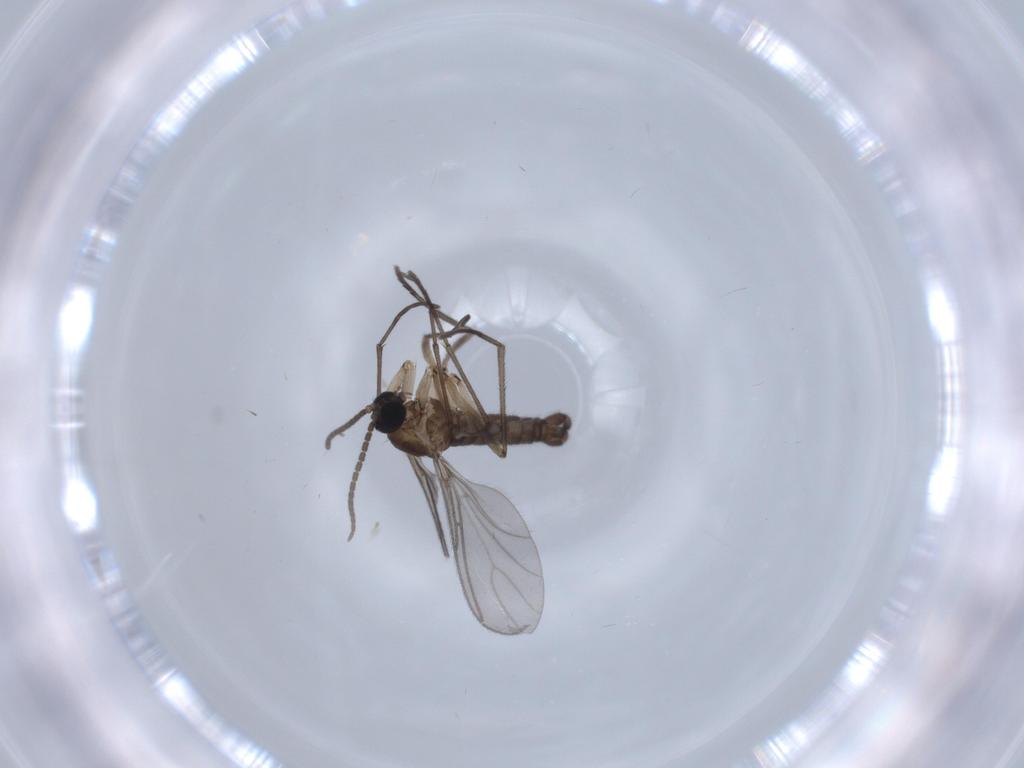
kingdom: Animalia
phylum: Arthropoda
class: Insecta
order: Diptera
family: Sciaridae
